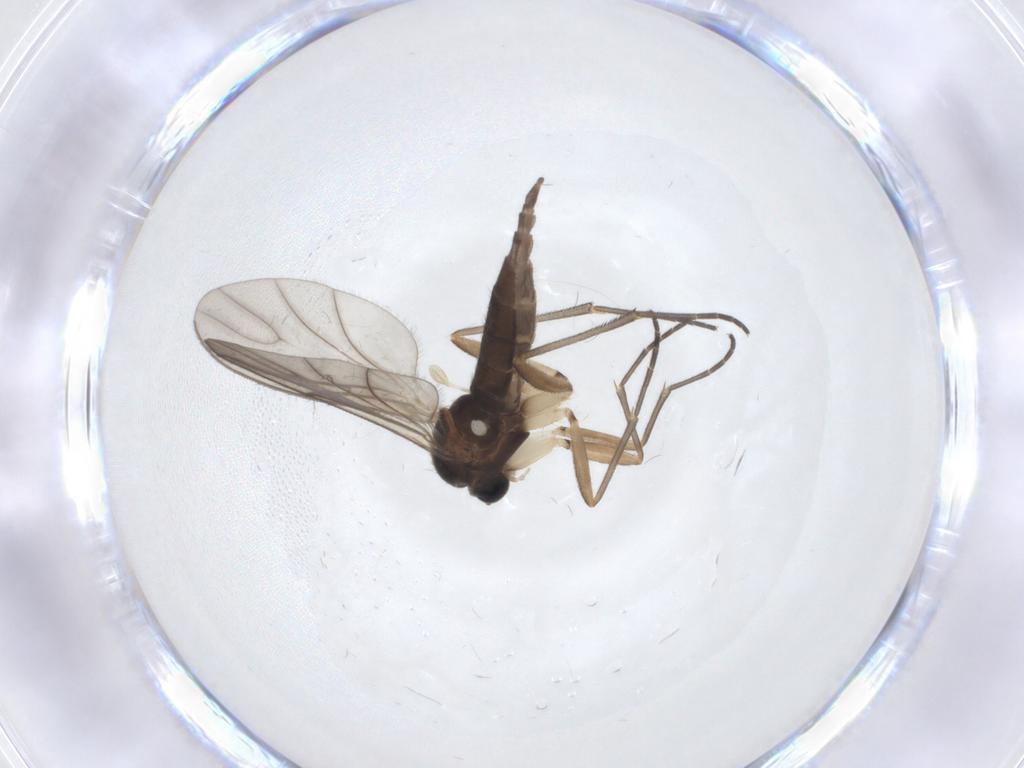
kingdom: Animalia
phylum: Arthropoda
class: Insecta
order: Diptera
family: Sciaridae
